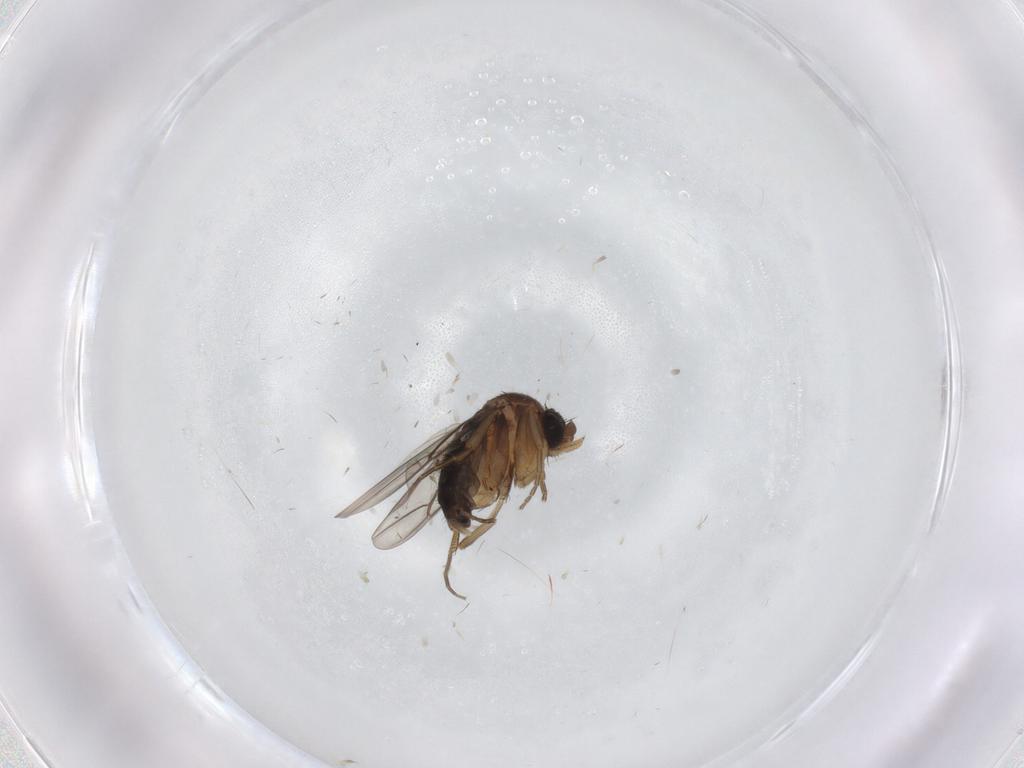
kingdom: Animalia
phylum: Arthropoda
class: Insecta
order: Diptera
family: Phoridae
